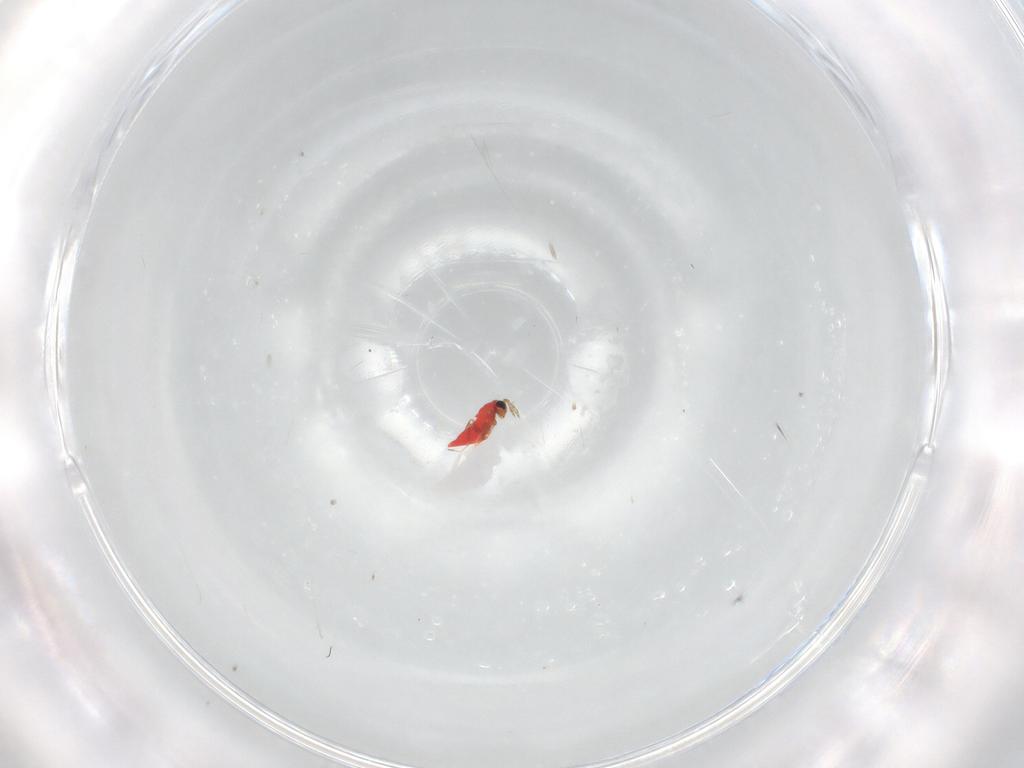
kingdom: Animalia
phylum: Arthropoda
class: Insecta
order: Hymenoptera
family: Trichogrammatidae
